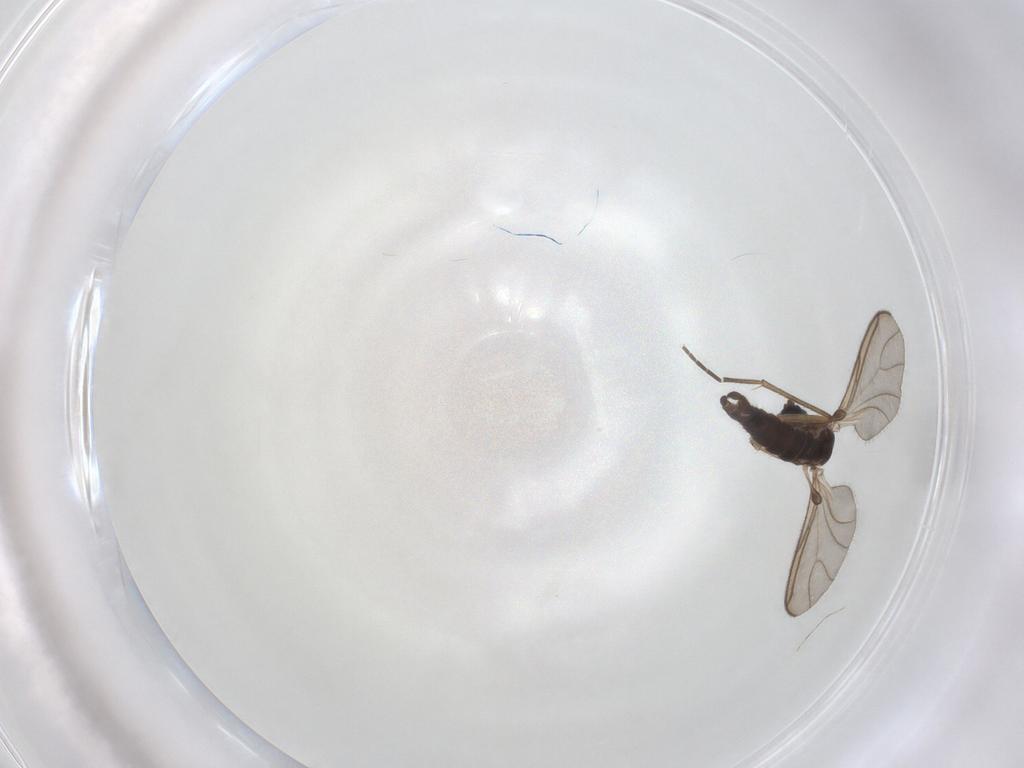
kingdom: Animalia
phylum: Arthropoda
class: Insecta
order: Diptera
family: Sciaridae
